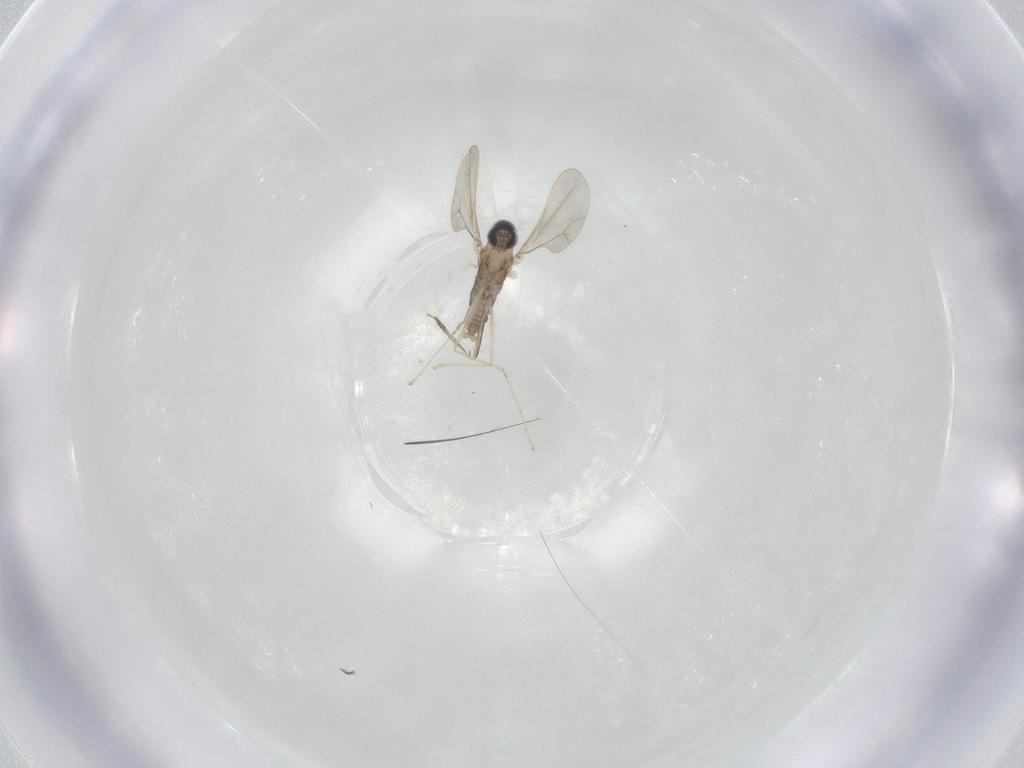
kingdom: Animalia
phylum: Arthropoda
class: Insecta
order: Diptera
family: Cecidomyiidae
